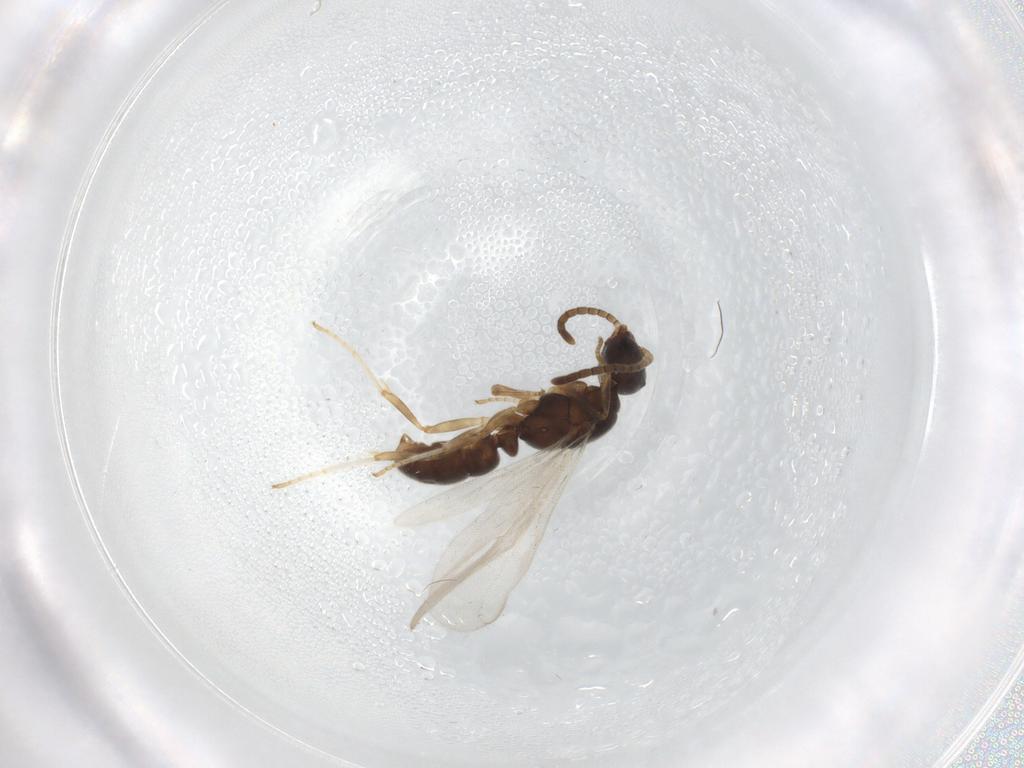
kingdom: Animalia
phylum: Arthropoda
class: Insecta
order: Hymenoptera
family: Formicidae
